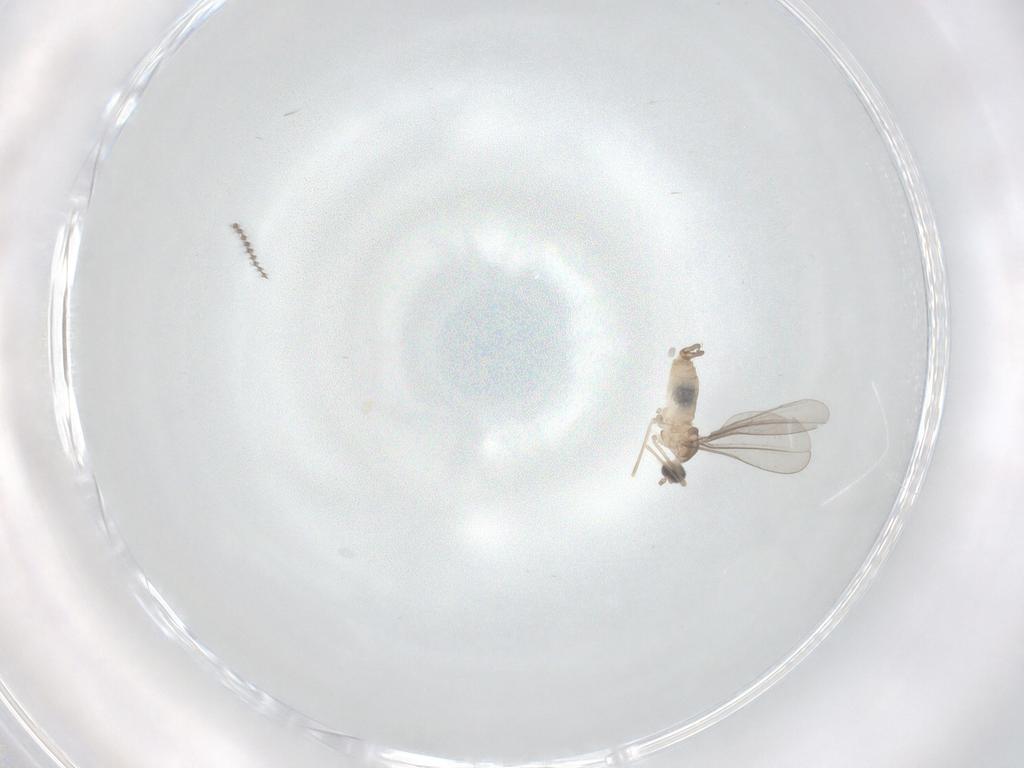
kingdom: Animalia
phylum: Arthropoda
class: Insecta
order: Diptera
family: Cecidomyiidae
